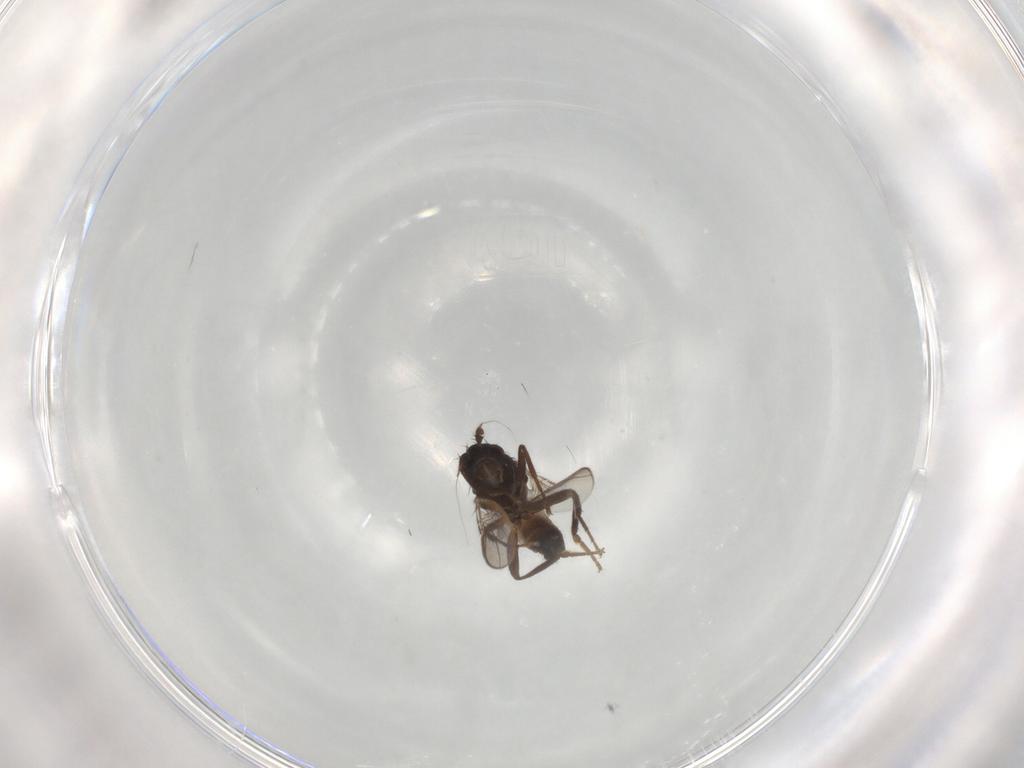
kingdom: Animalia
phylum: Arthropoda
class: Insecta
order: Diptera
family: Sphaeroceridae
